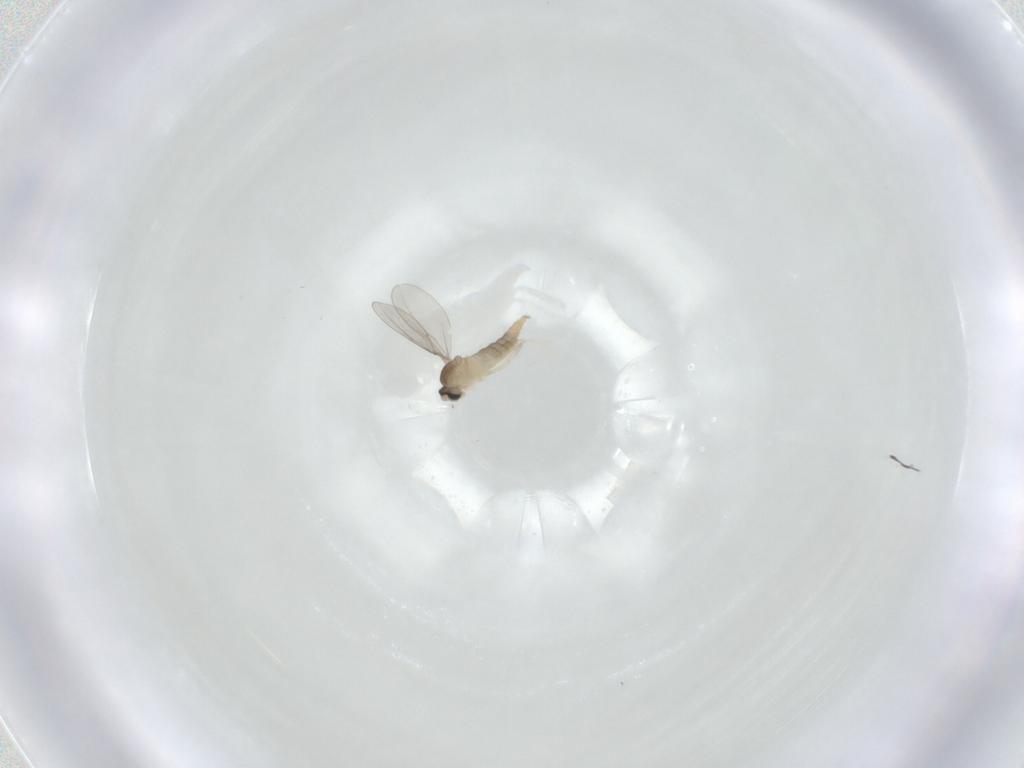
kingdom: Animalia
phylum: Arthropoda
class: Insecta
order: Diptera
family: Cecidomyiidae
